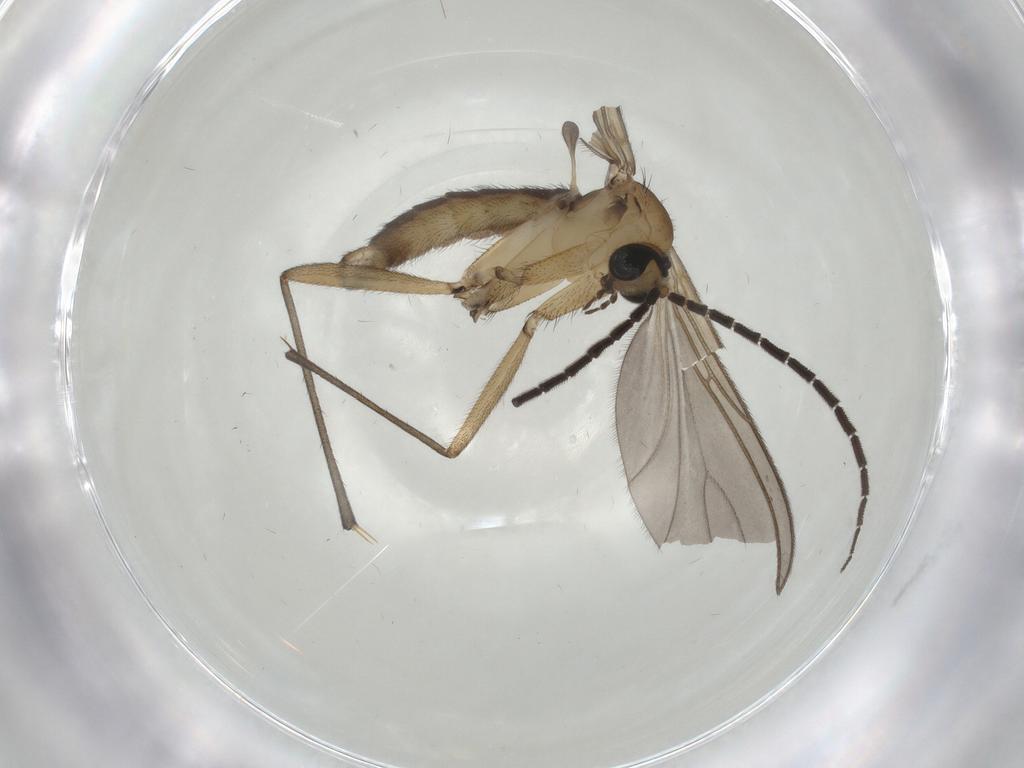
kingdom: Animalia
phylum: Arthropoda
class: Insecta
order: Diptera
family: Sciaridae
